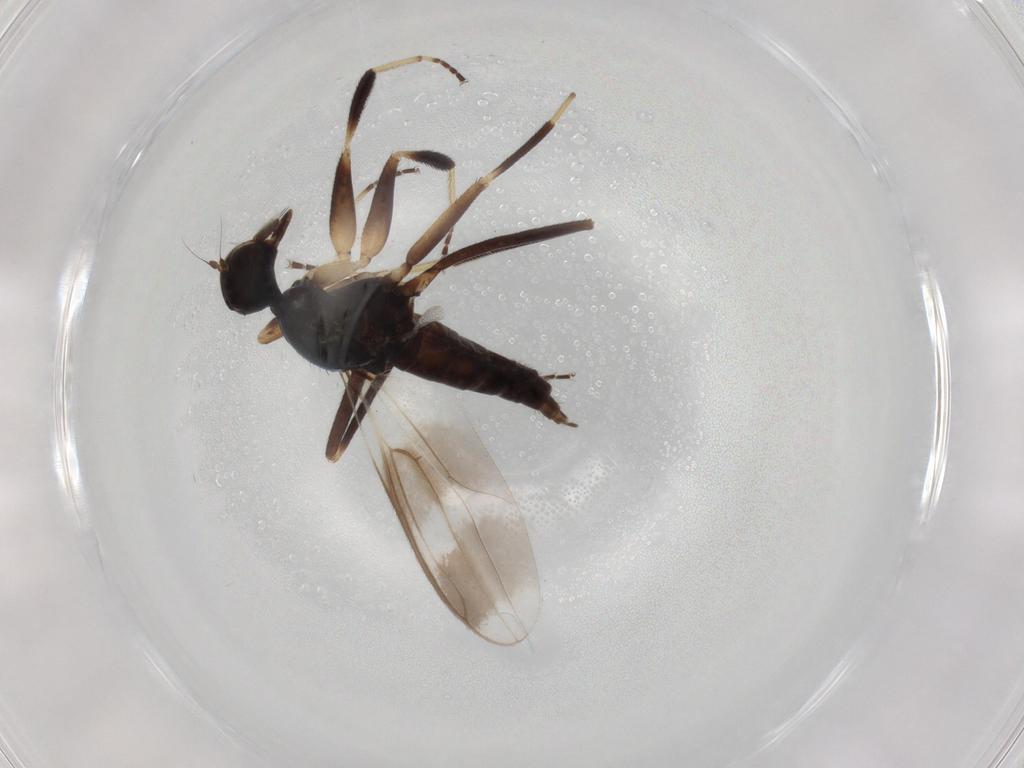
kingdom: Animalia
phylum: Arthropoda
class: Insecta
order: Diptera
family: Hybotidae
